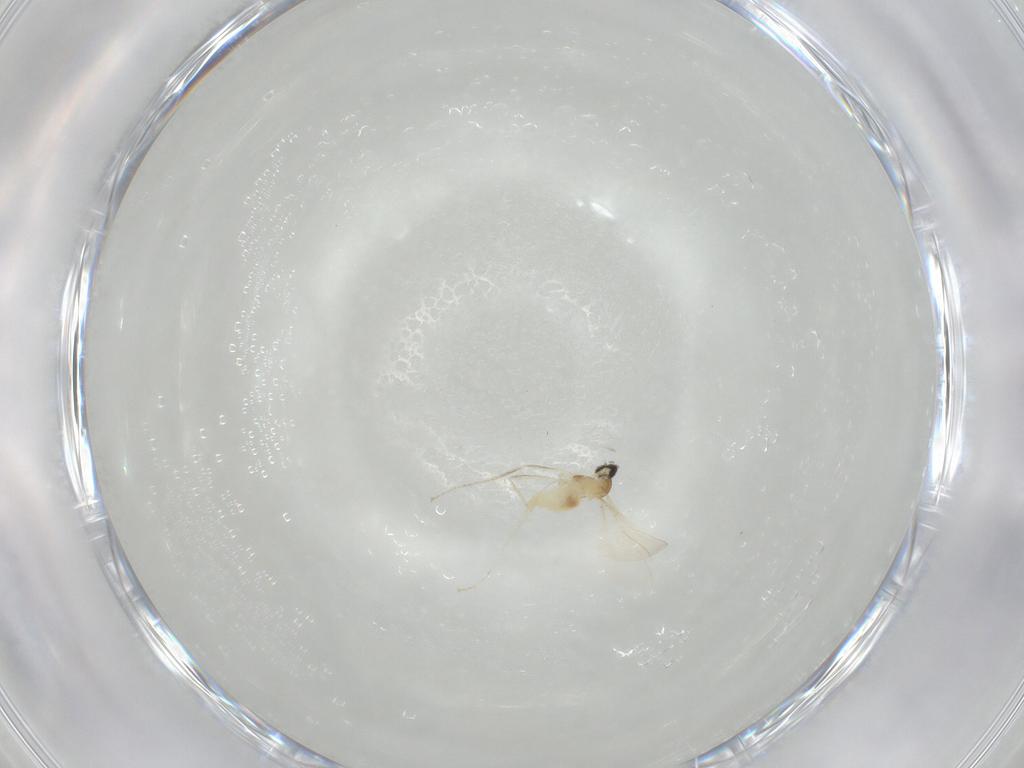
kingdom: Animalia
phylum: Arthropoda
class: Insecta
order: Diptera
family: Cecidomyiidae
